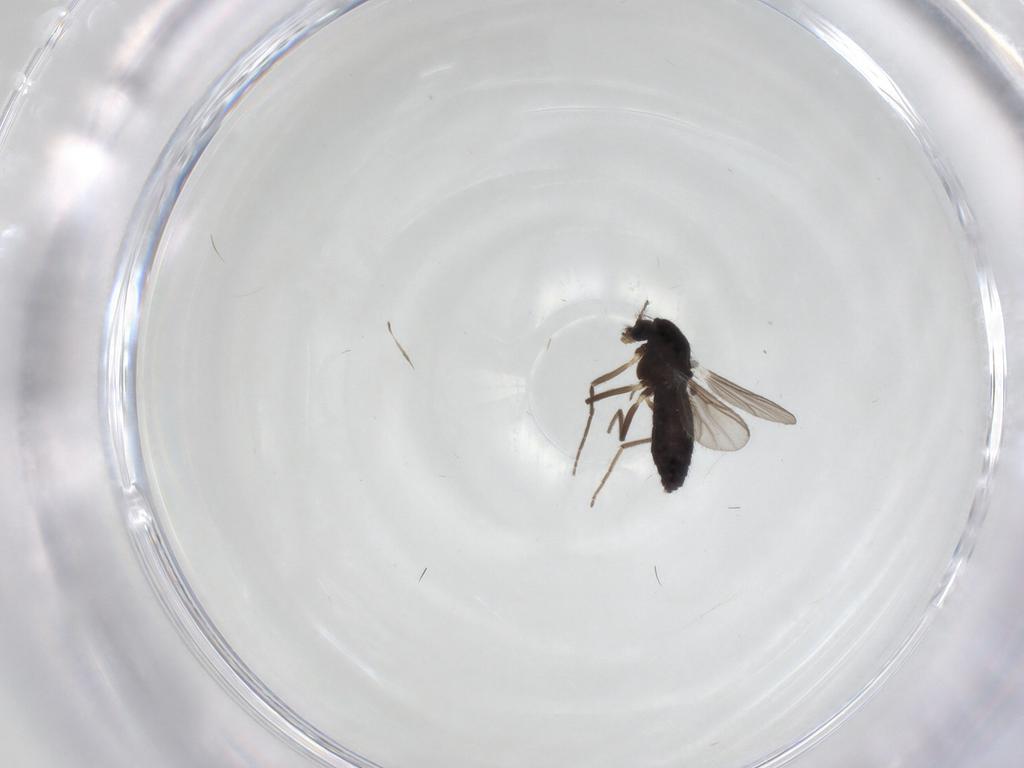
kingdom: Animalia
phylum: Arthropoda
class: Insecta
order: Diptera
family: Chironomidae
